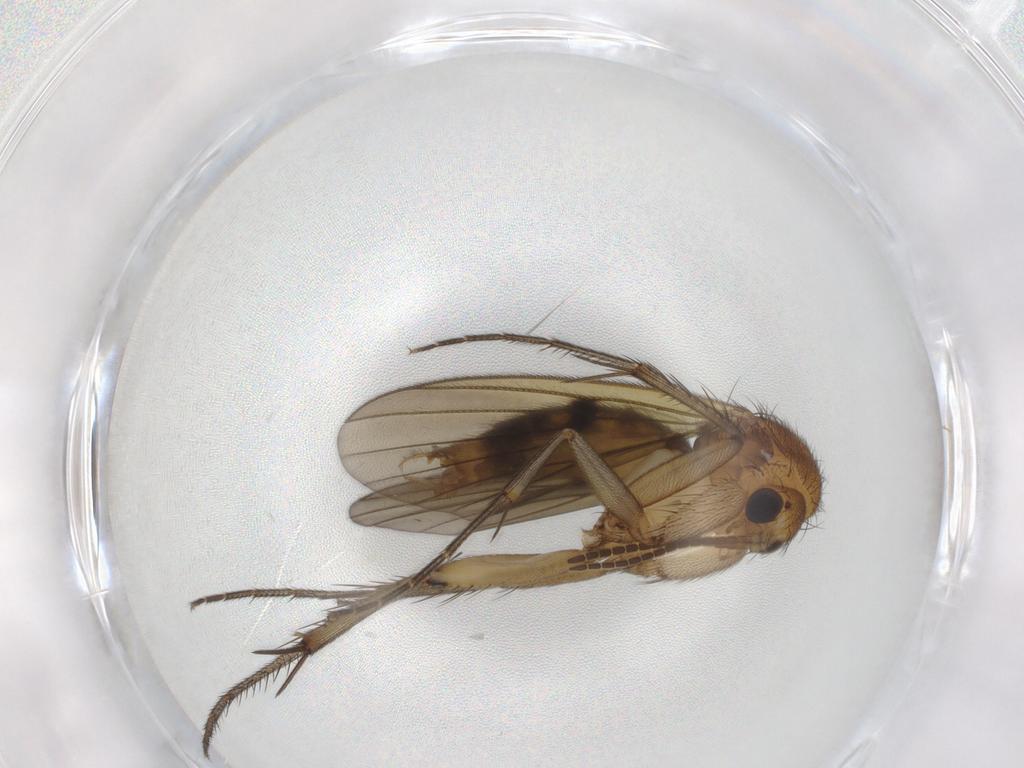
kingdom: Animalia
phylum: Arthropoda
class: Insecta
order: Diptera
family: Mycetophilidae
